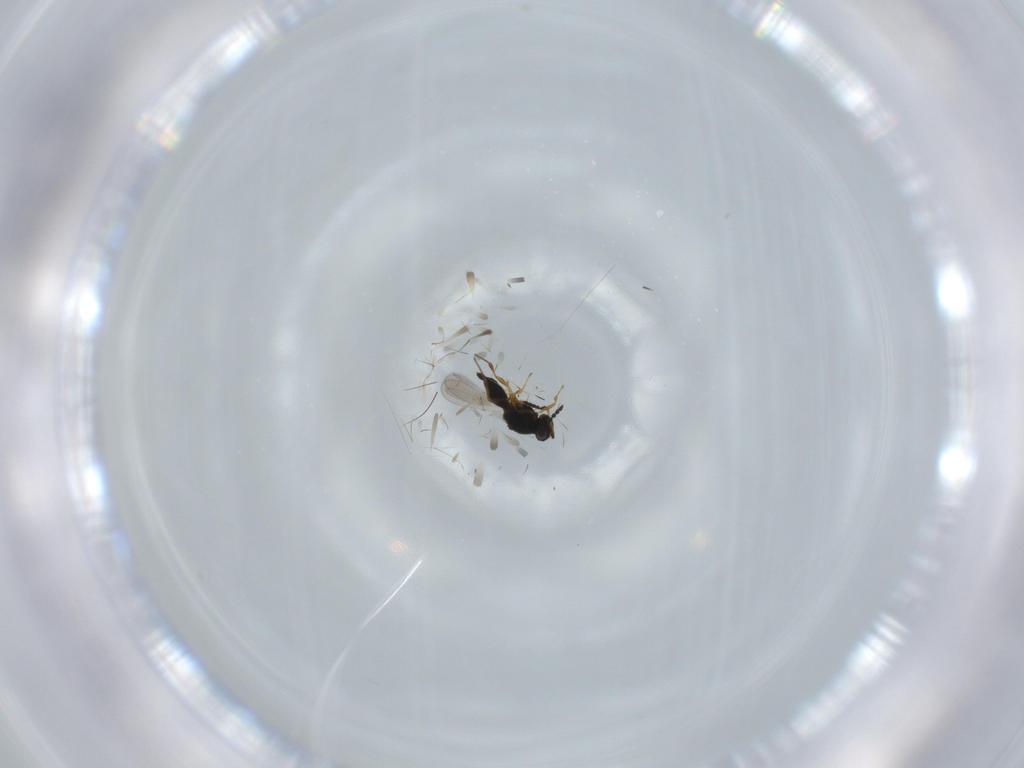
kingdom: Animalia
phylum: Arthropoda
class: Insecta
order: Hymenoptera
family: Platygastridae
